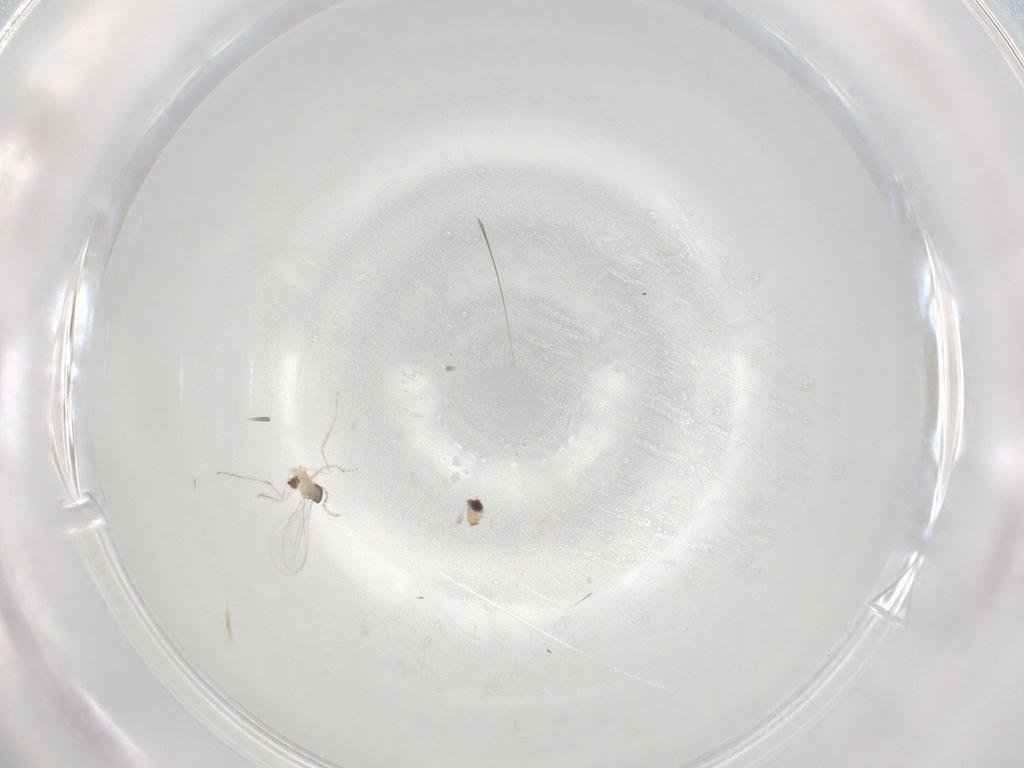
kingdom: Animalia
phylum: Arthropoda
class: Insecta
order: Diptera
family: Cecidomyiidae
